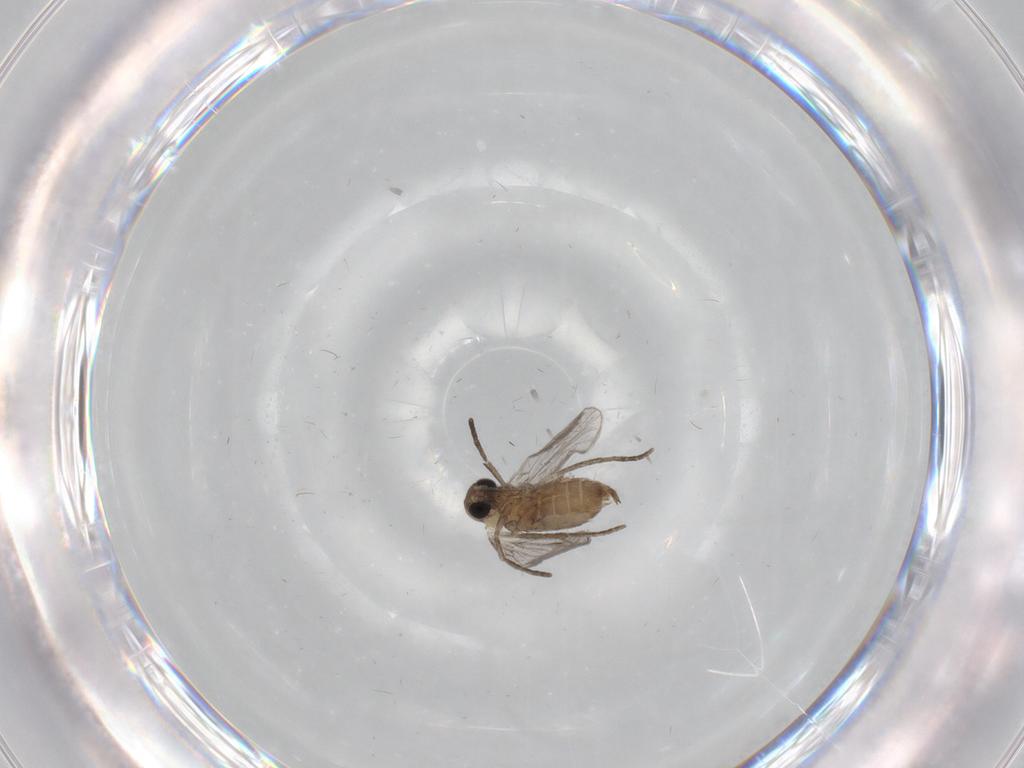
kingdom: Animalia
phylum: Arthropoda
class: Insecta
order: Diptera
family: Psychodidae
